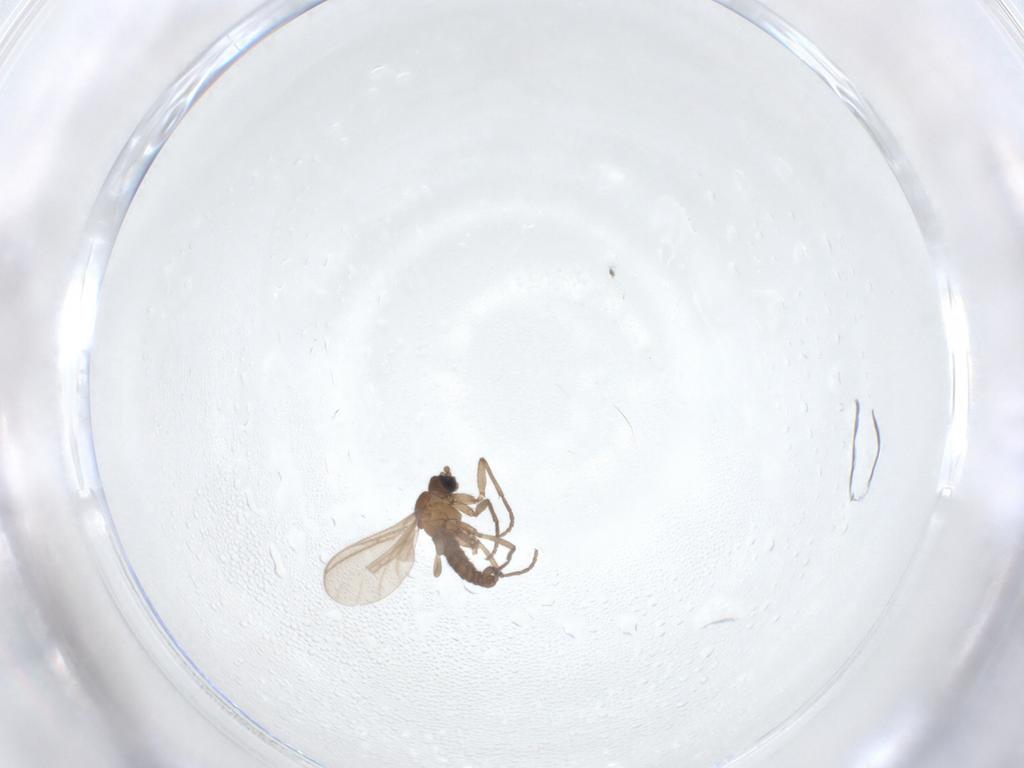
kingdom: Animalia
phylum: Arthropoda
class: Insecta
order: Diptera
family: Sciaridae
